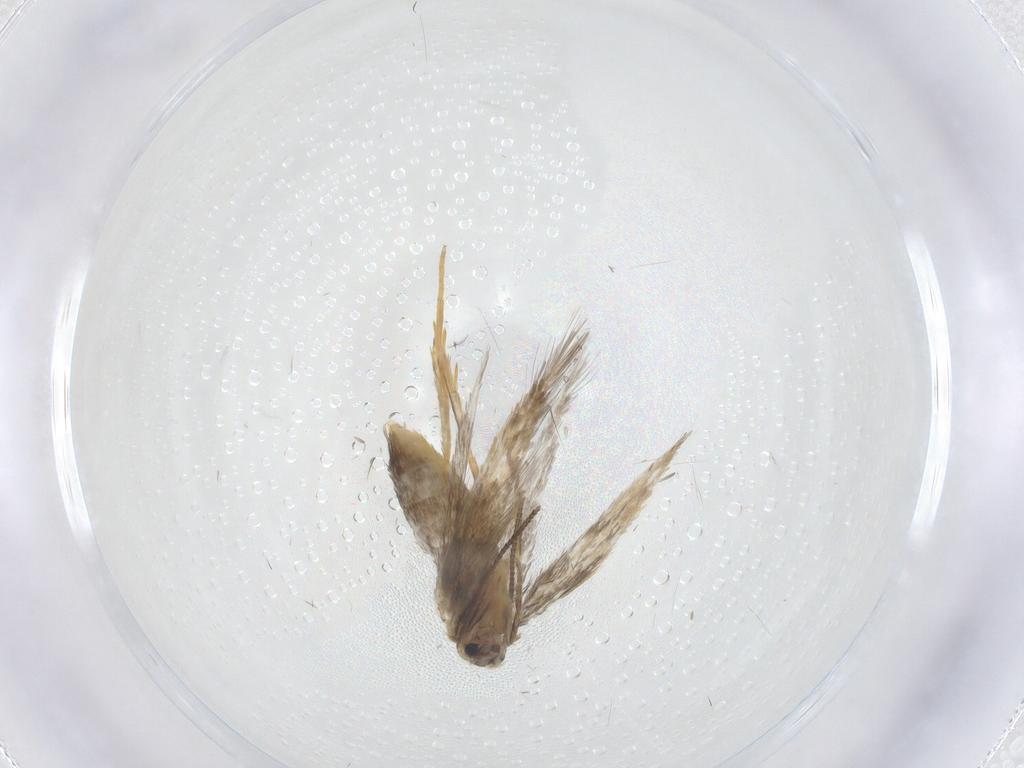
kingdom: Animalia
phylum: Arthropoda
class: Insecta
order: Lepidoptera
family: Nepticulidae
